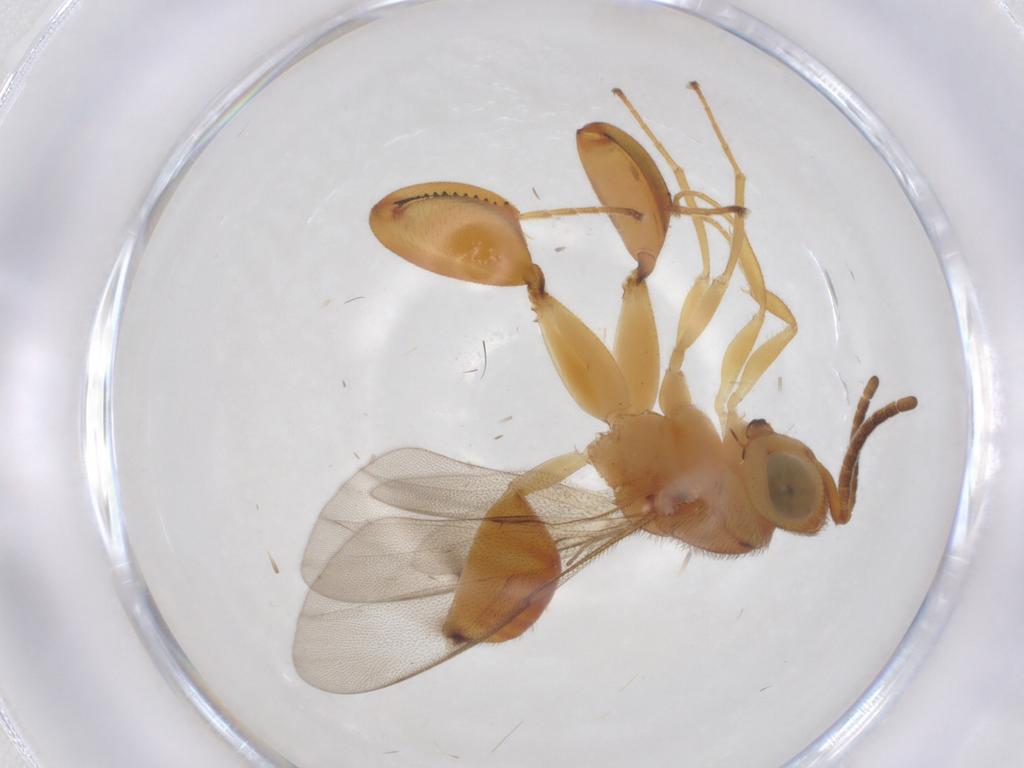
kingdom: Animalia
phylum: Arthropoda
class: Insecta
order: Hymenoptera
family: Chalcididae
